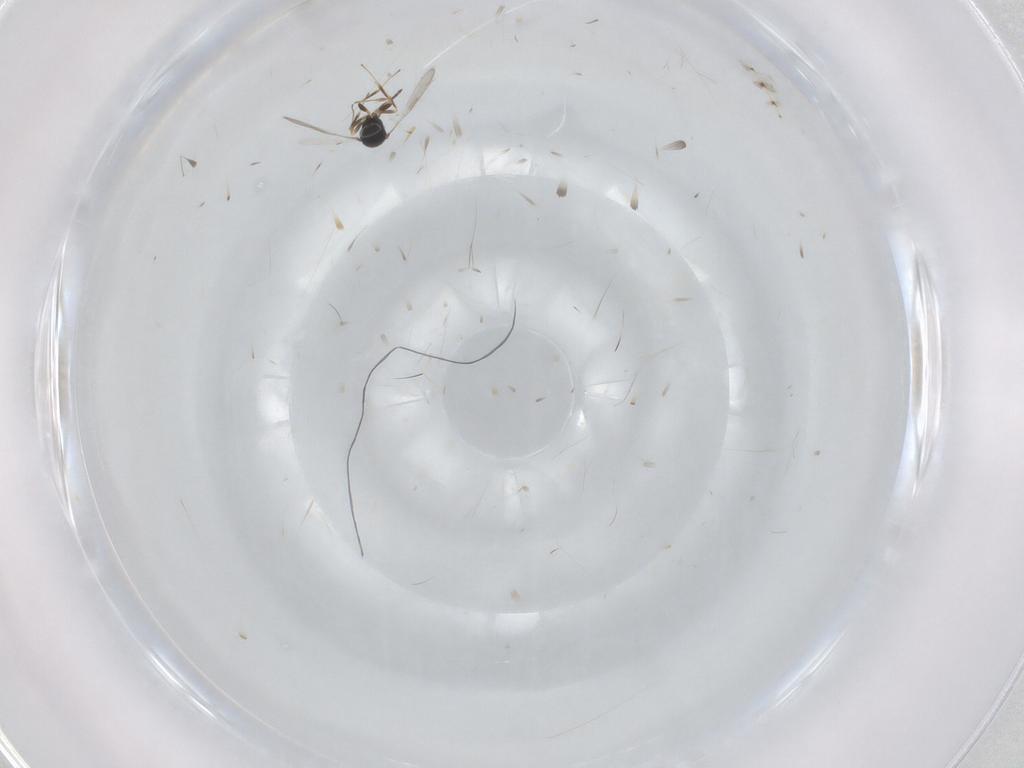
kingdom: Animalia
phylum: Arthropoda
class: Insecta
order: Hymenoptera
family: Scelionidae
